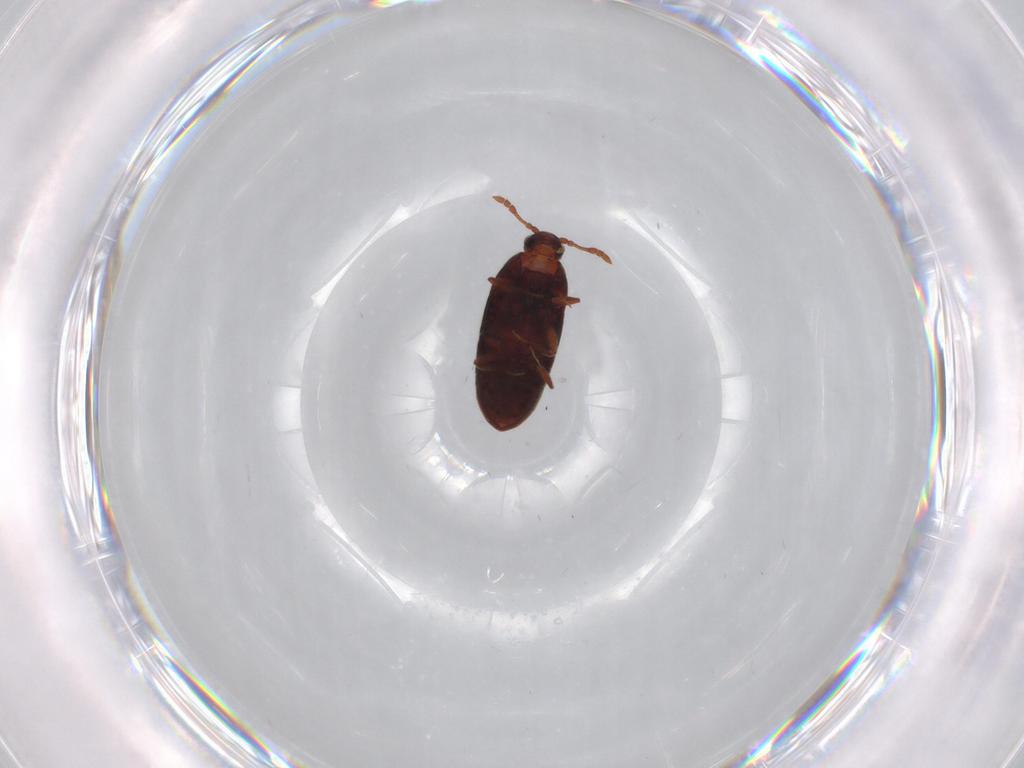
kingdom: Animalia
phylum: Arthropoda
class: Insecta
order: Coleoptera
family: Throscidae
